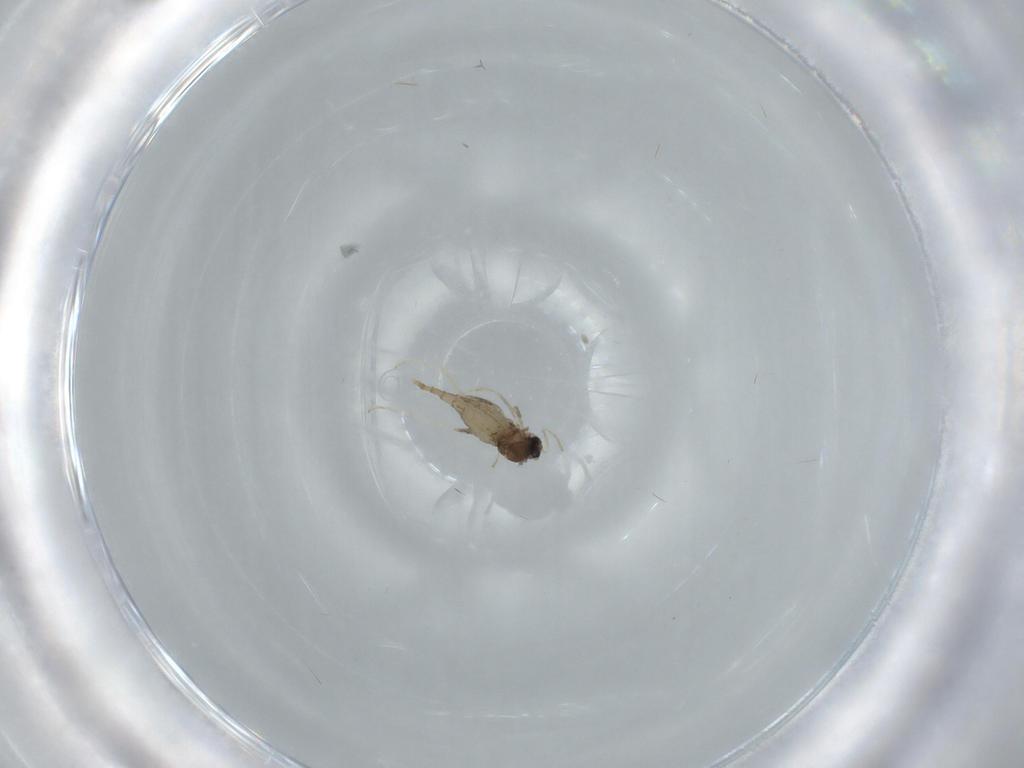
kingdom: Animalia
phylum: Arthropoda
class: Insecta
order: Diptera
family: Cecidomyiidae
